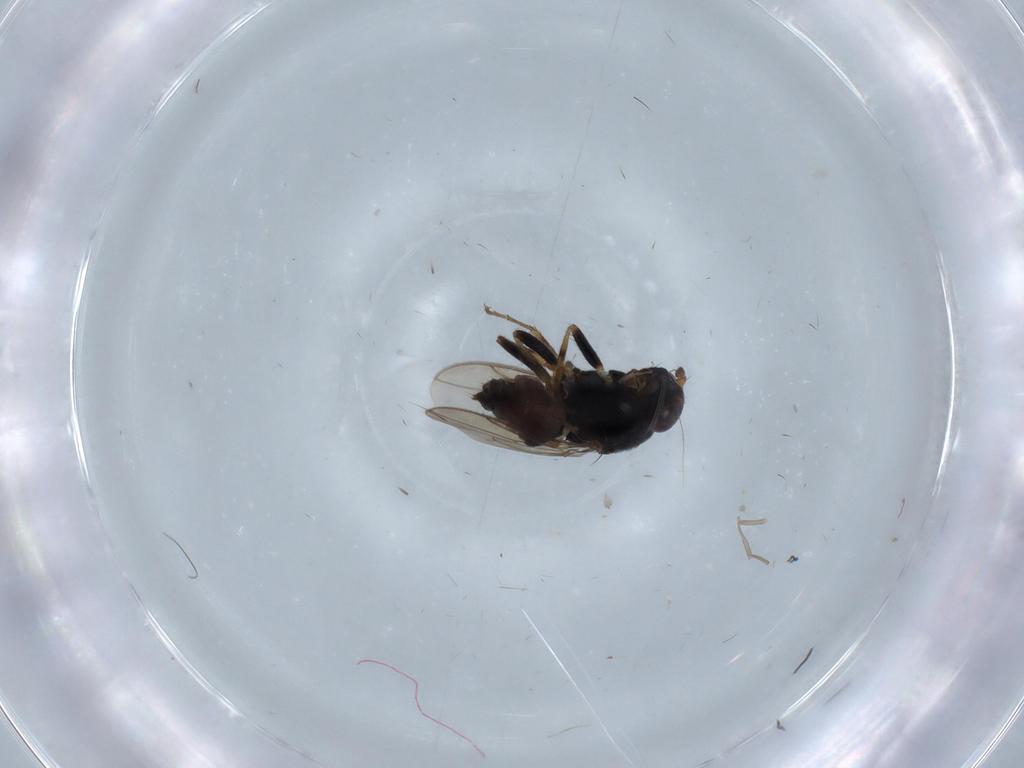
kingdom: Animalia
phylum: Arthropoda
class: Insecta
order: Diptera
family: Sphaeroceridae
